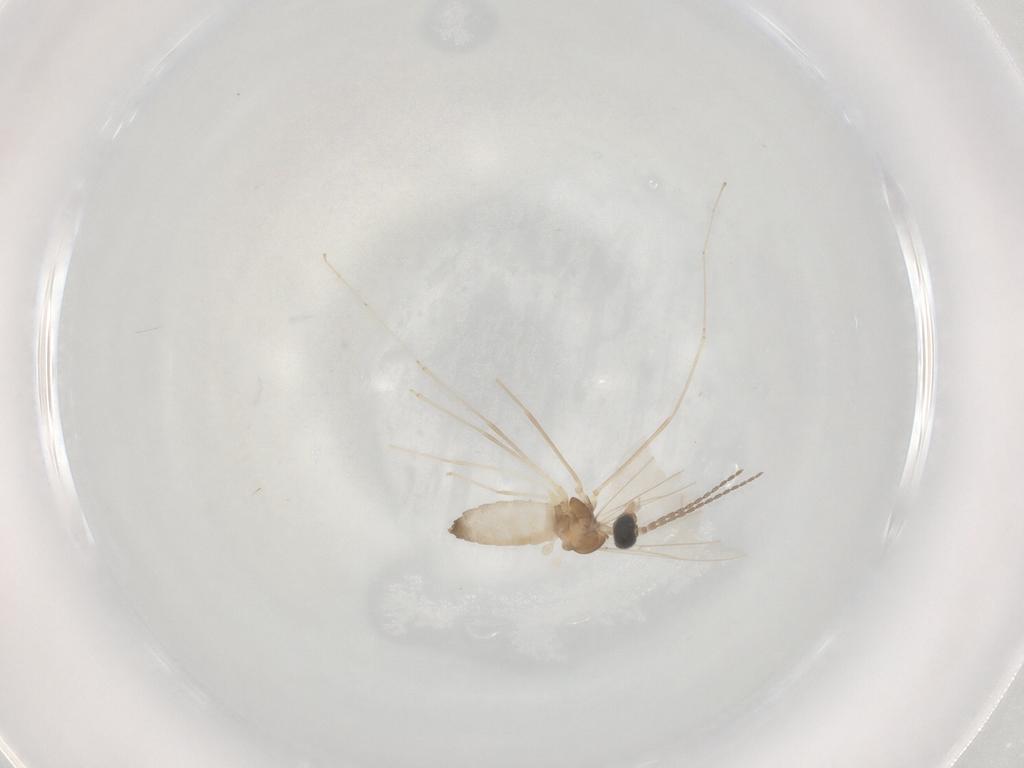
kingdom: Animalia
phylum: Arthropoda
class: Insecta
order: Diptera
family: Cecidomyiidae
